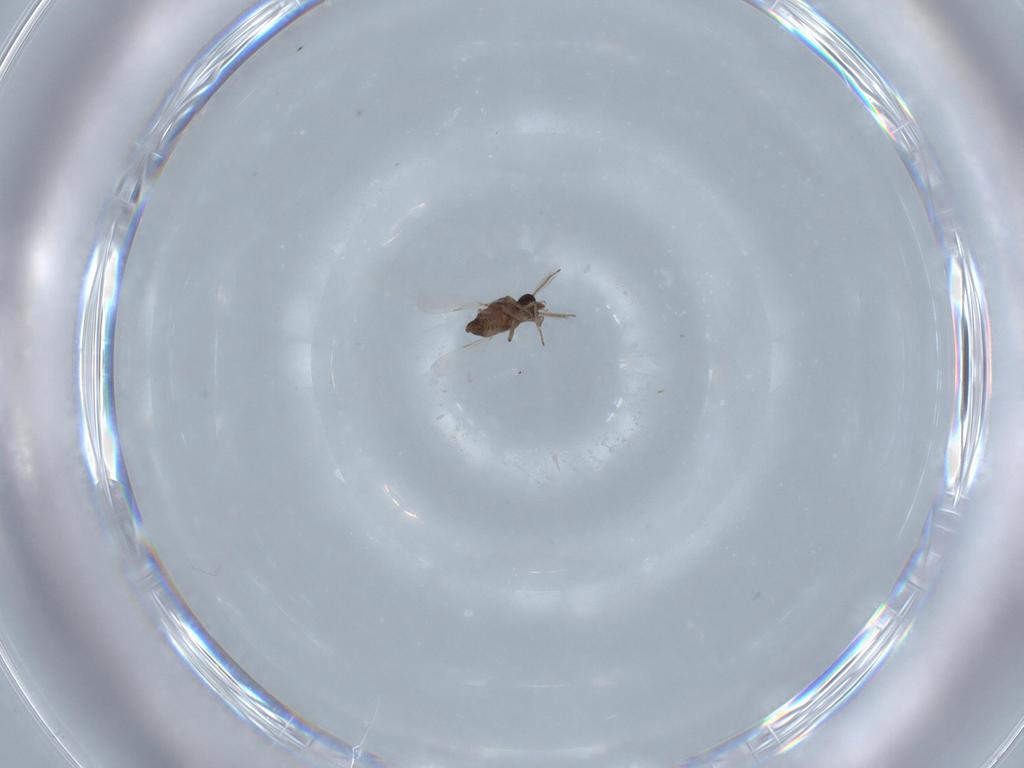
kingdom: Animalia
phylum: Arthropoda
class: Insecta
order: Diptera
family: Ceratopogonidae
